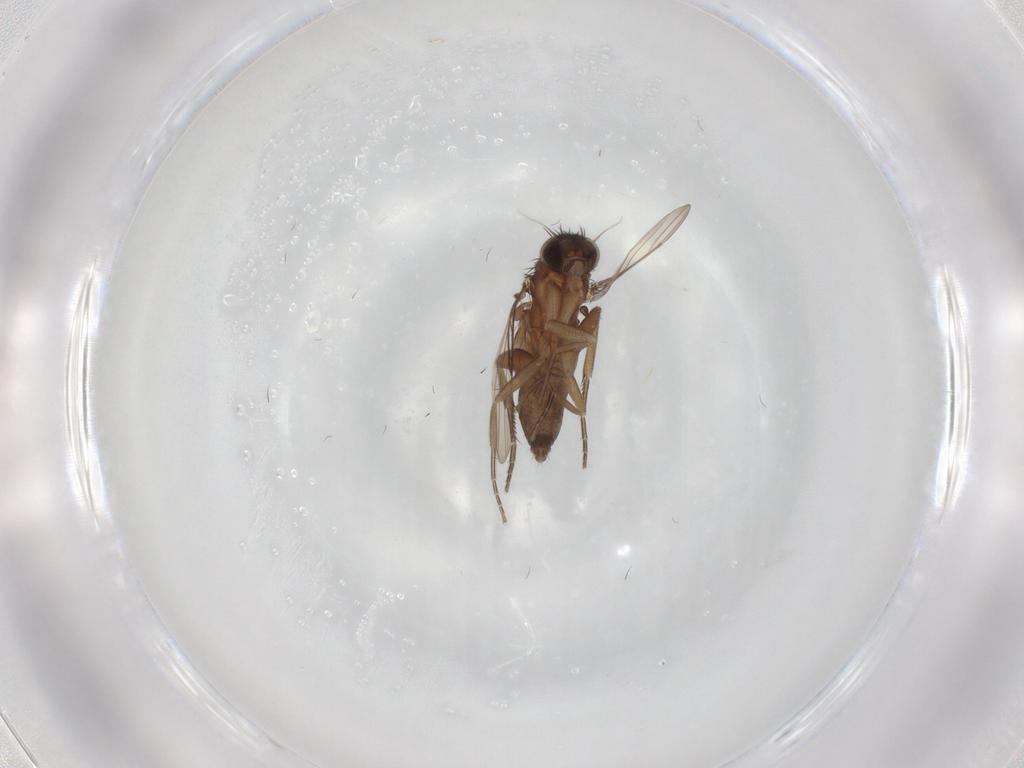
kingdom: Animalia
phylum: Arthropoda
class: Insecta
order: Diptera
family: Phoridae
